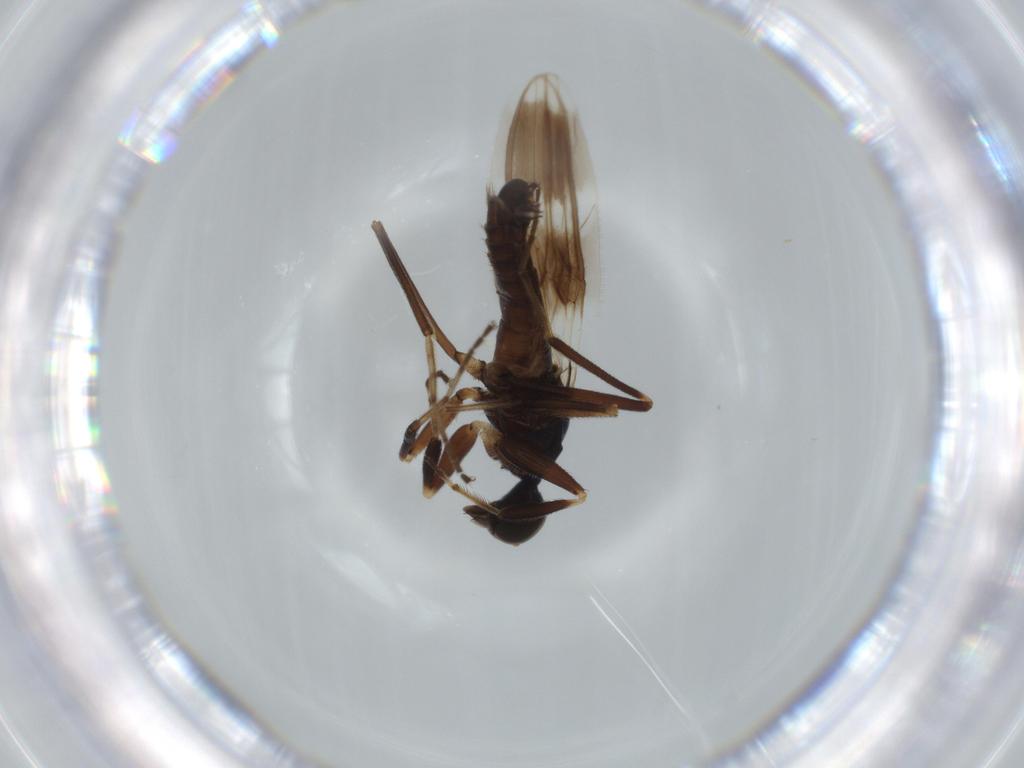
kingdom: Animalia
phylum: Arthropoda
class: Insecta
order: Diptera
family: Hybotidae
